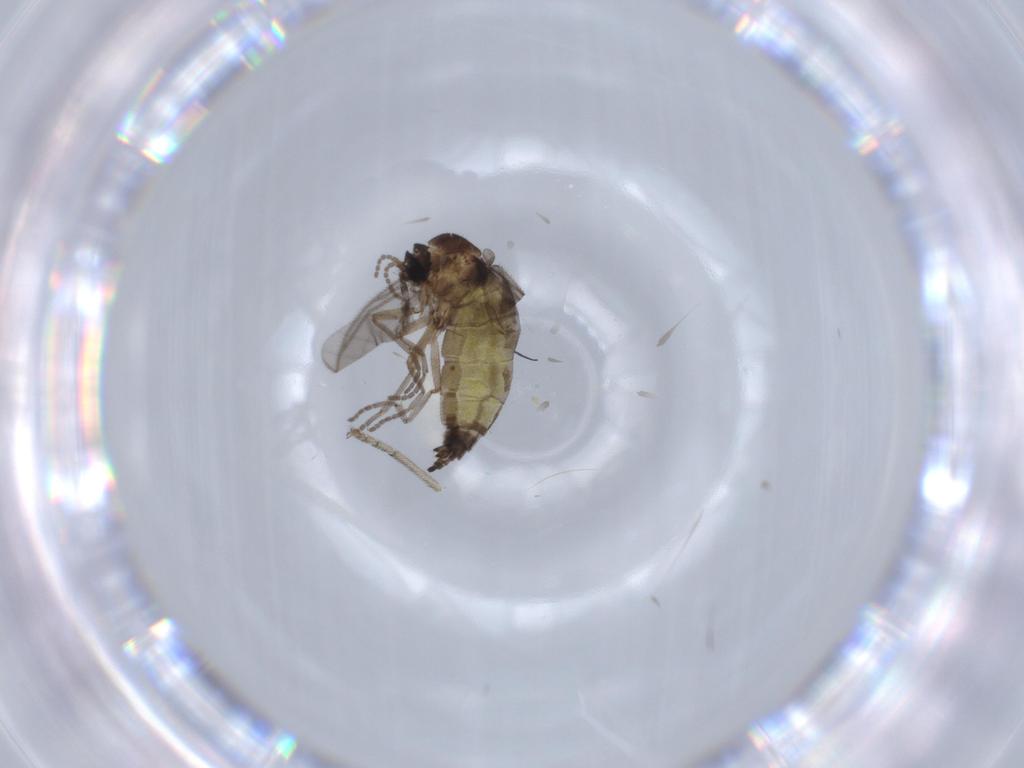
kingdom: Animalia
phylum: Arthropoda
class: Insecta
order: Diptera
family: Sciaridae
